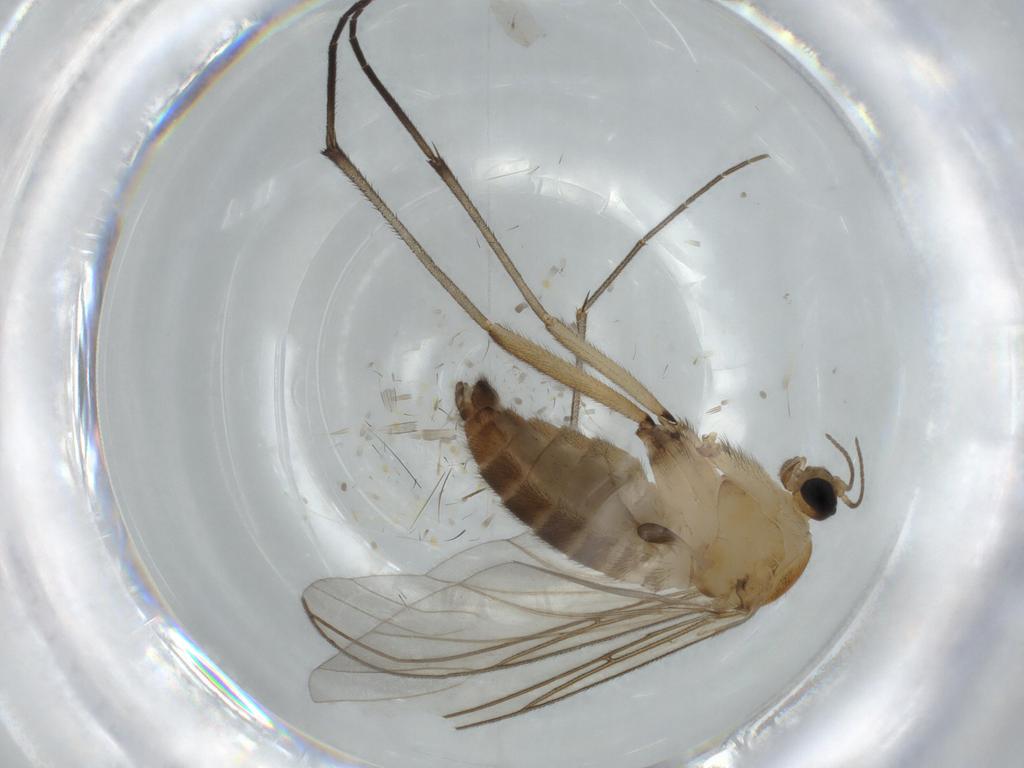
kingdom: Animalia
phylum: Arthropoda
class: Insecta
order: Diptera
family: Sciaridae
